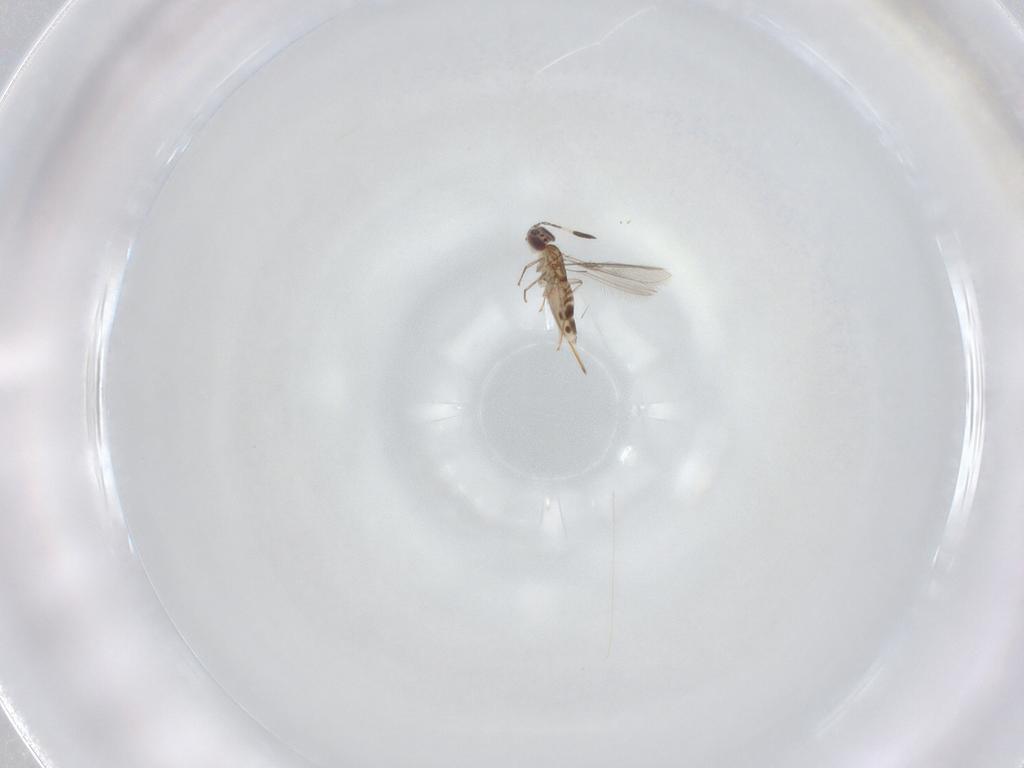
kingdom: Animalia
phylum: Arthropoda
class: Insecta
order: Hymenoptera
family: Mymaridae
